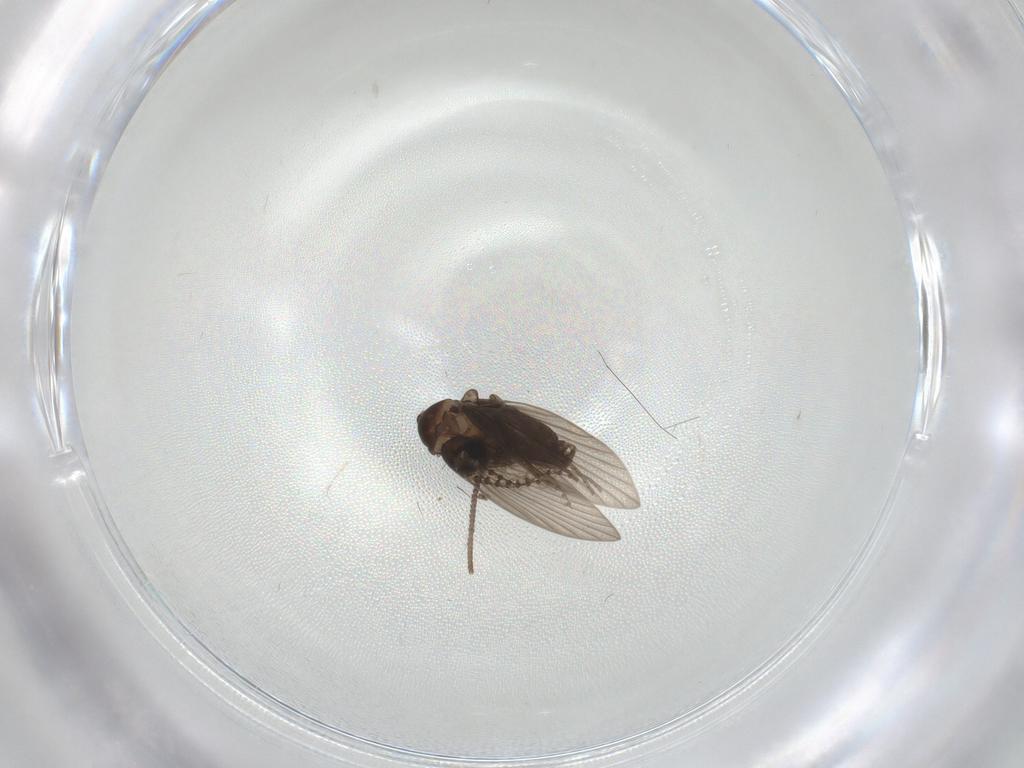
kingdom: Animalia
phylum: Arthropoda
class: Insecta
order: Diptera
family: Psychodidae
